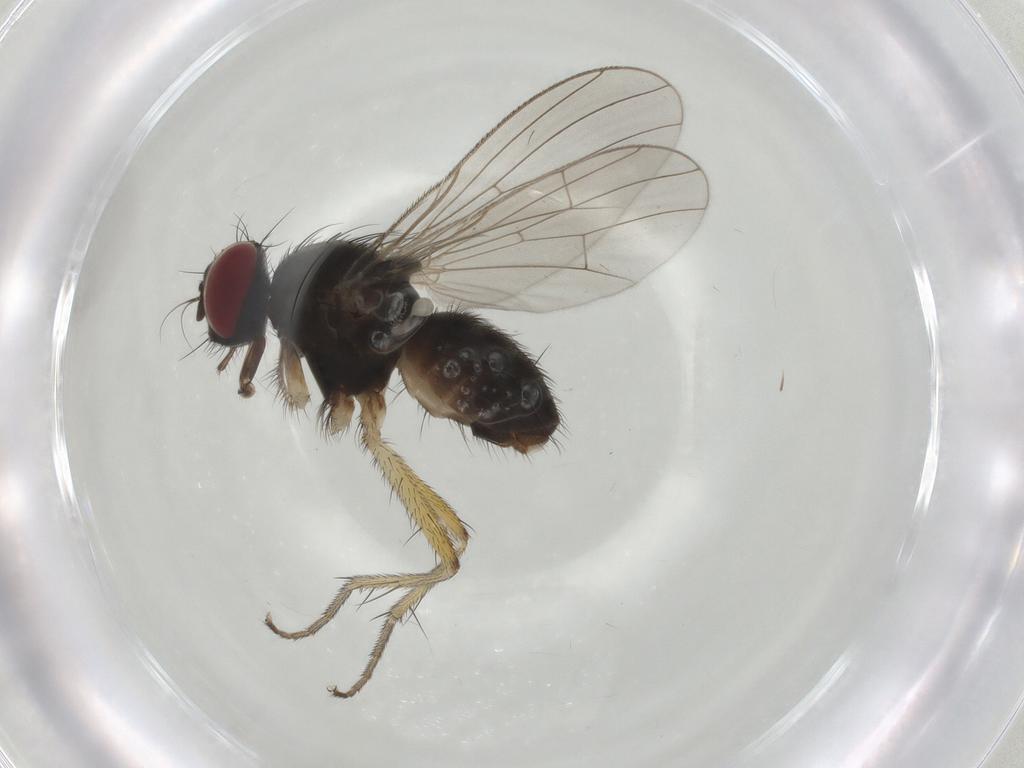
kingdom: Animalia
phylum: Arthropoda
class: Insecta
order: Diptera
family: Muscidae
